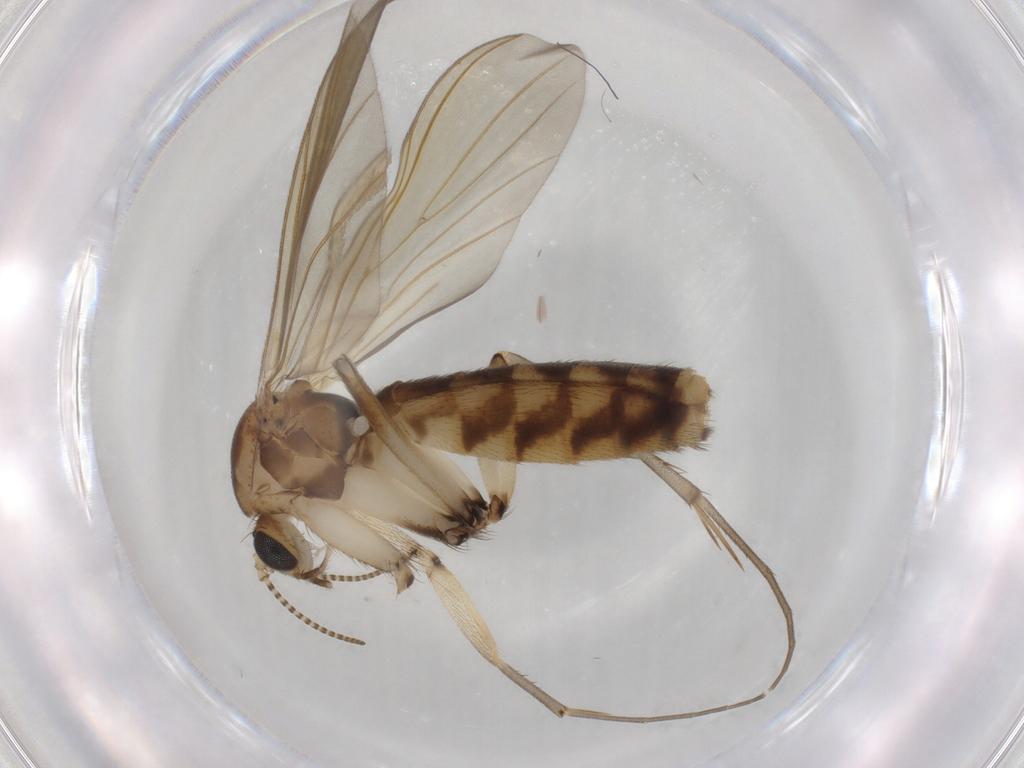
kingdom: Animalia
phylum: Arthropoda
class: Insecta
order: Diptera
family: Mycetophilidae
